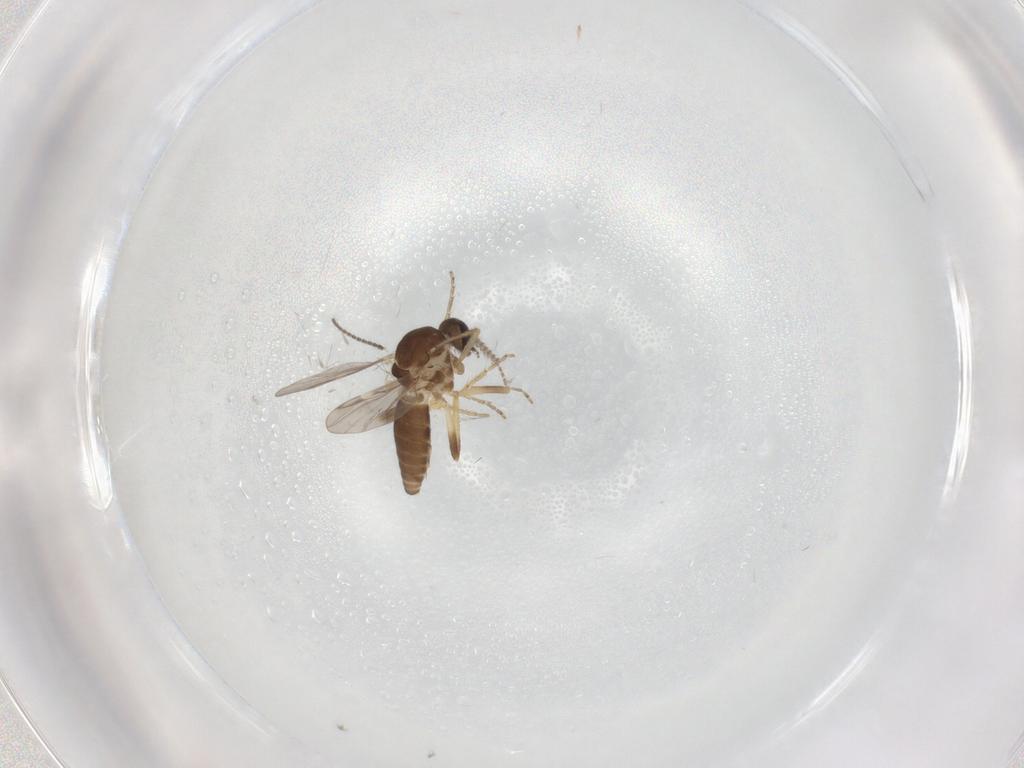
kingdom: Animalia
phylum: Arthropoda
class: Insecta
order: Diptera
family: Ceratopogonidae
